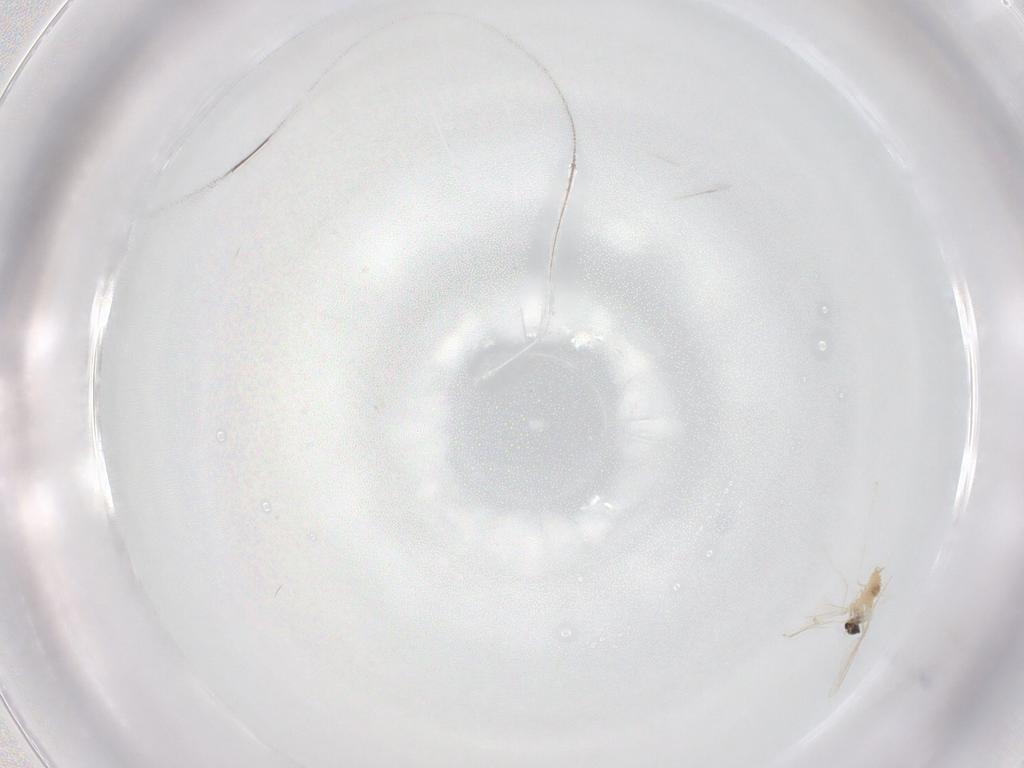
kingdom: Animalia
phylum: Arthropoda
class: Insecta
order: Diptera
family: Cecidomyiidae
